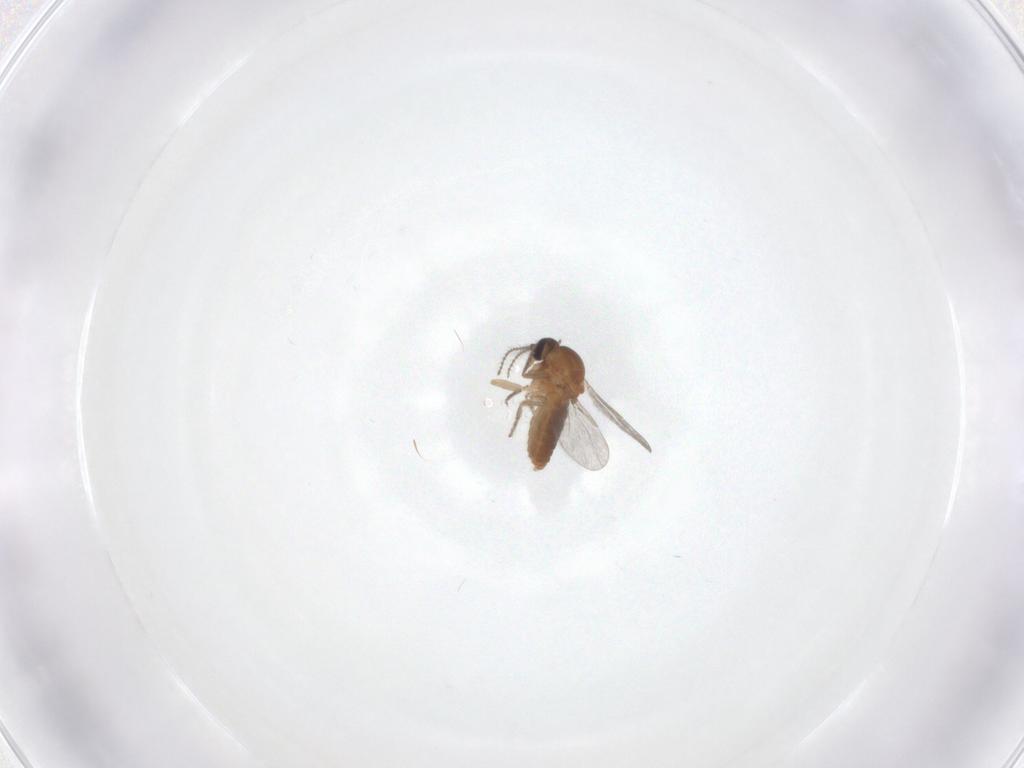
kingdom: Animalia
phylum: Arthropoda
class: Insecta
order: Diptera
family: Ceratopogonidae
